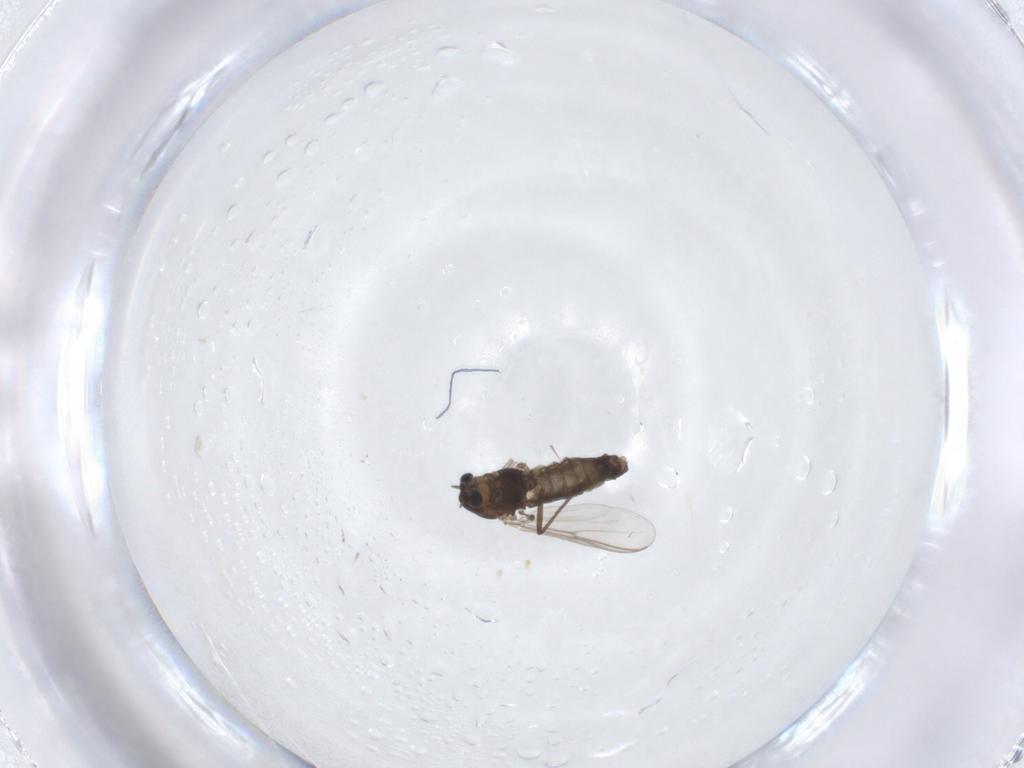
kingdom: Animalia
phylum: Arthropoda
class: Insecta
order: Diptera
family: Chironomidae
